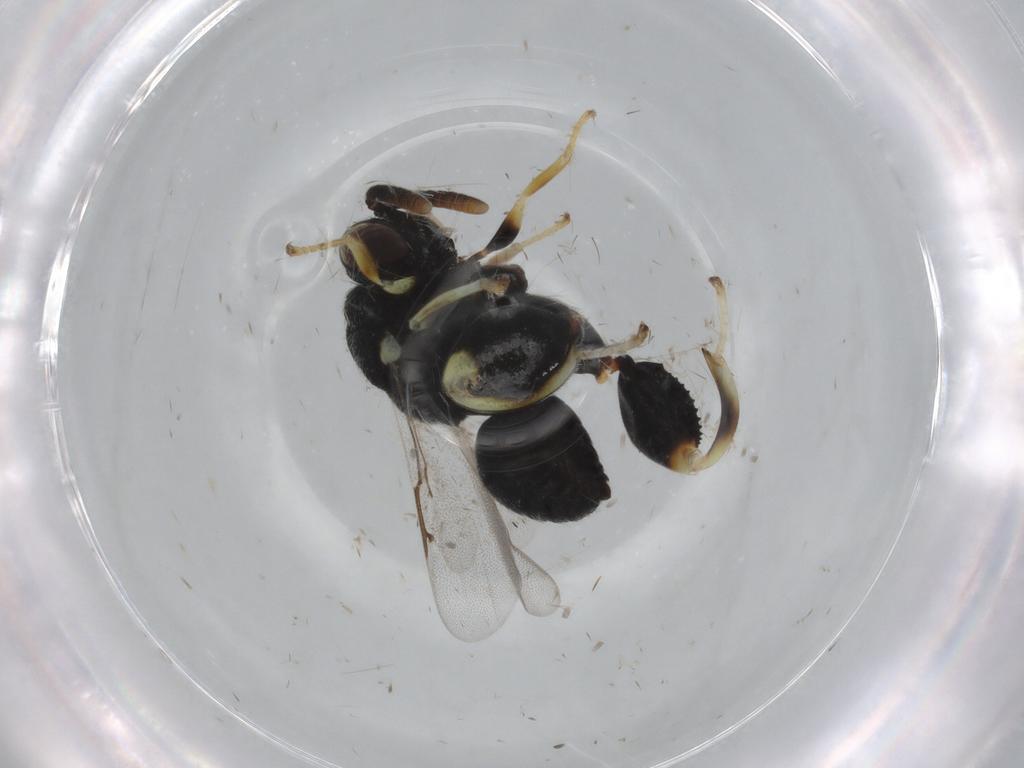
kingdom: Animalia
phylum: Arthropoda
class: Insecta
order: Hymenoptera
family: Chalcididae
